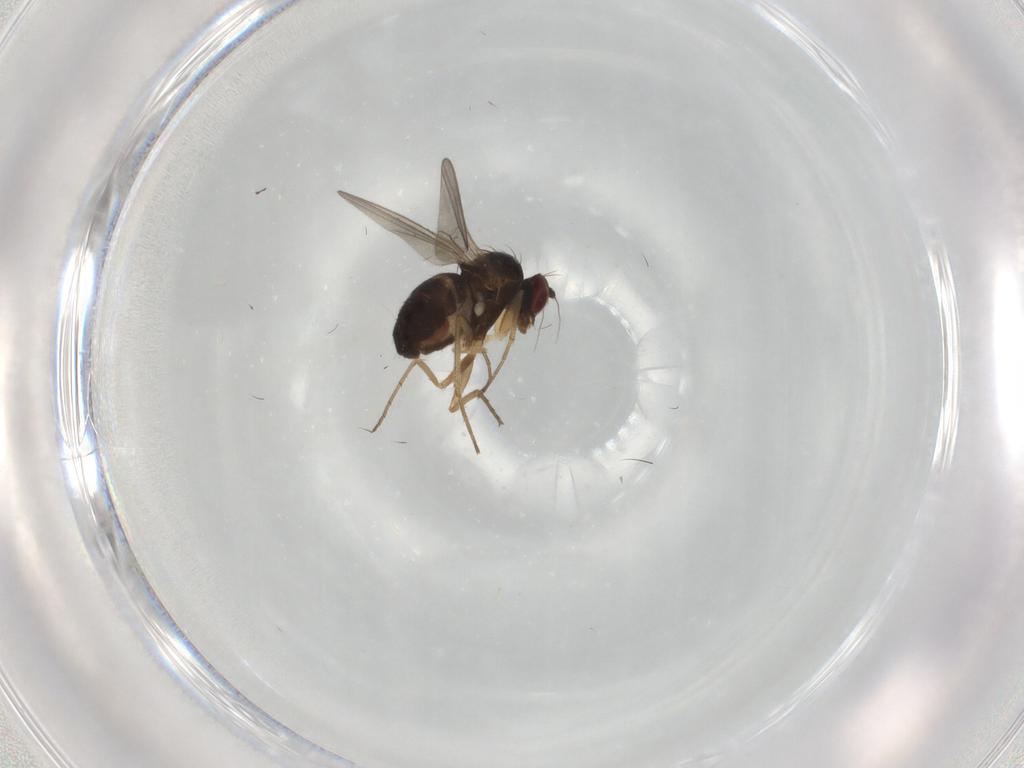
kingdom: Animalia
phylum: Arthropoda
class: Insecta
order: Diptera
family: Dolichopodidae
